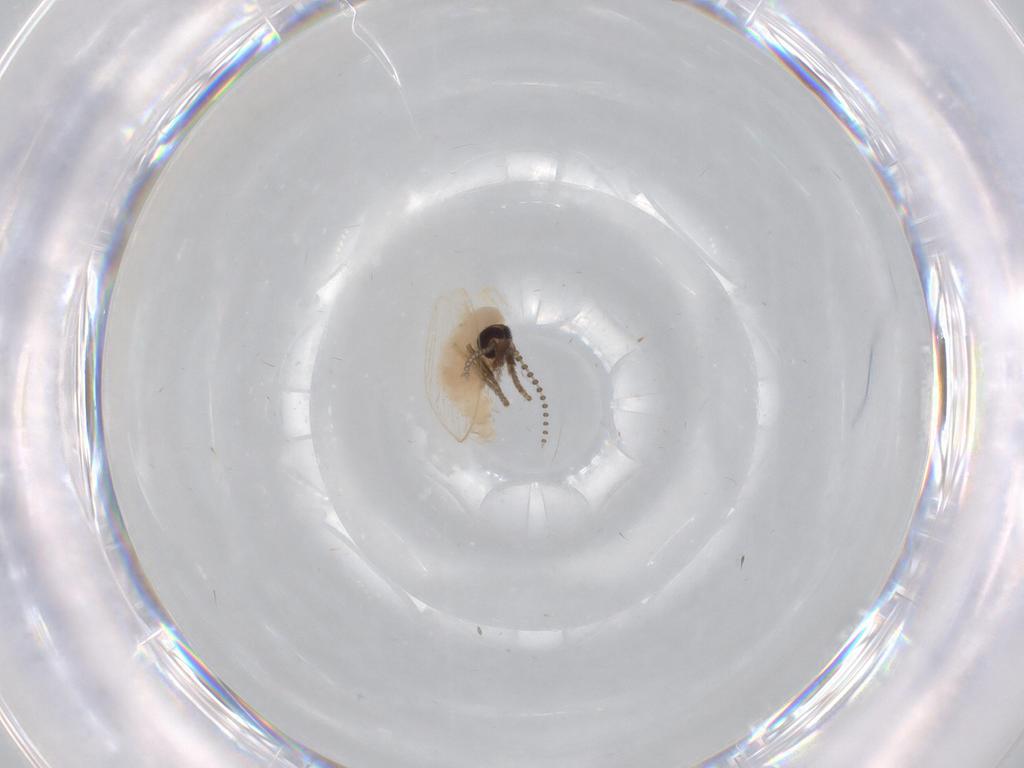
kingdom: Animalia
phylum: Arthropoda
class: Insecta
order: Diptera
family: Psychodidae
